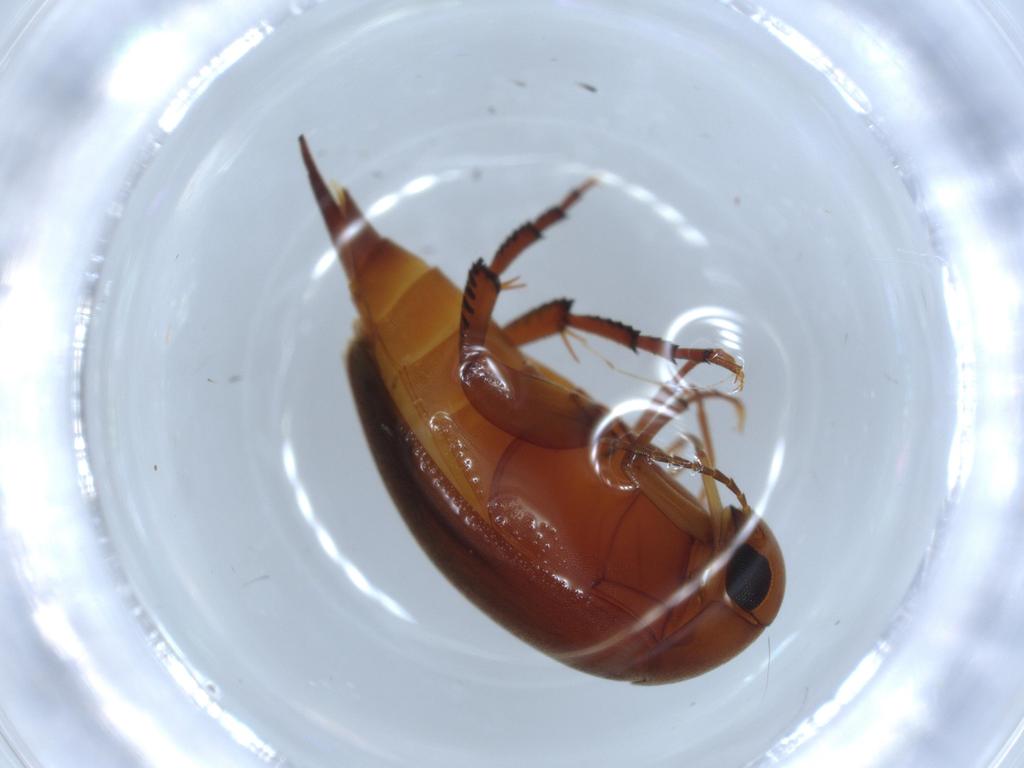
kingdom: Animalia
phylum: Arthropoda
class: Insecta
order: Coleoptera
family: Mordellidae
